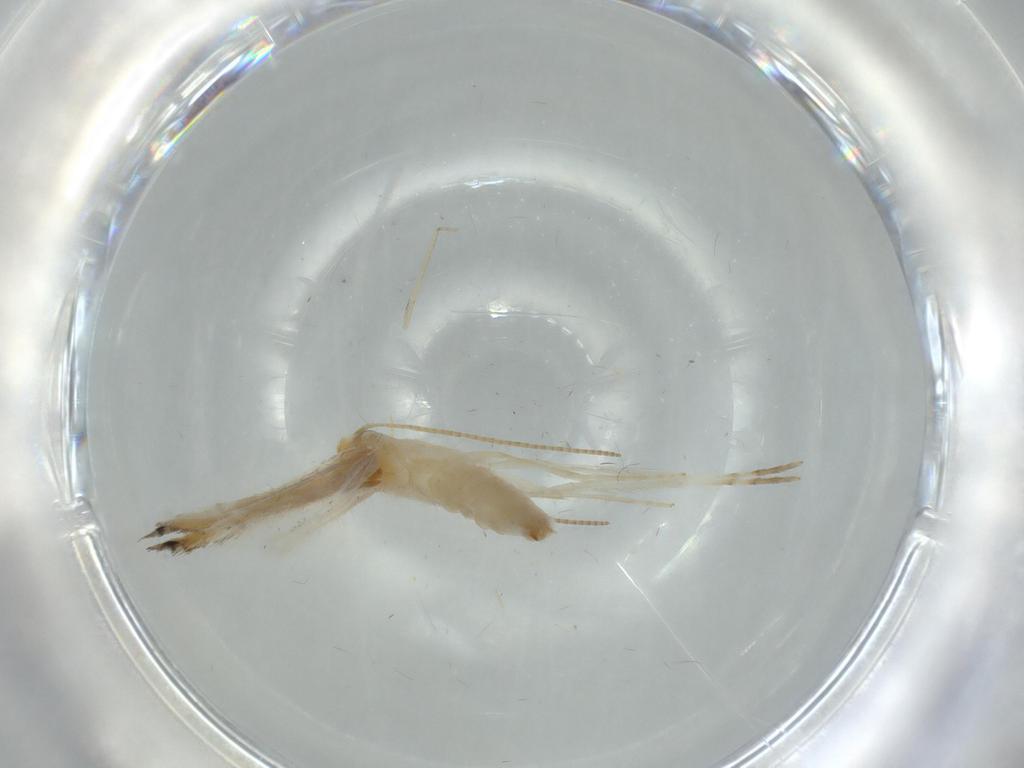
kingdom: Animalia
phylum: Arthropoda
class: Insecta
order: Lepidoptera
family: Gracillariidae
